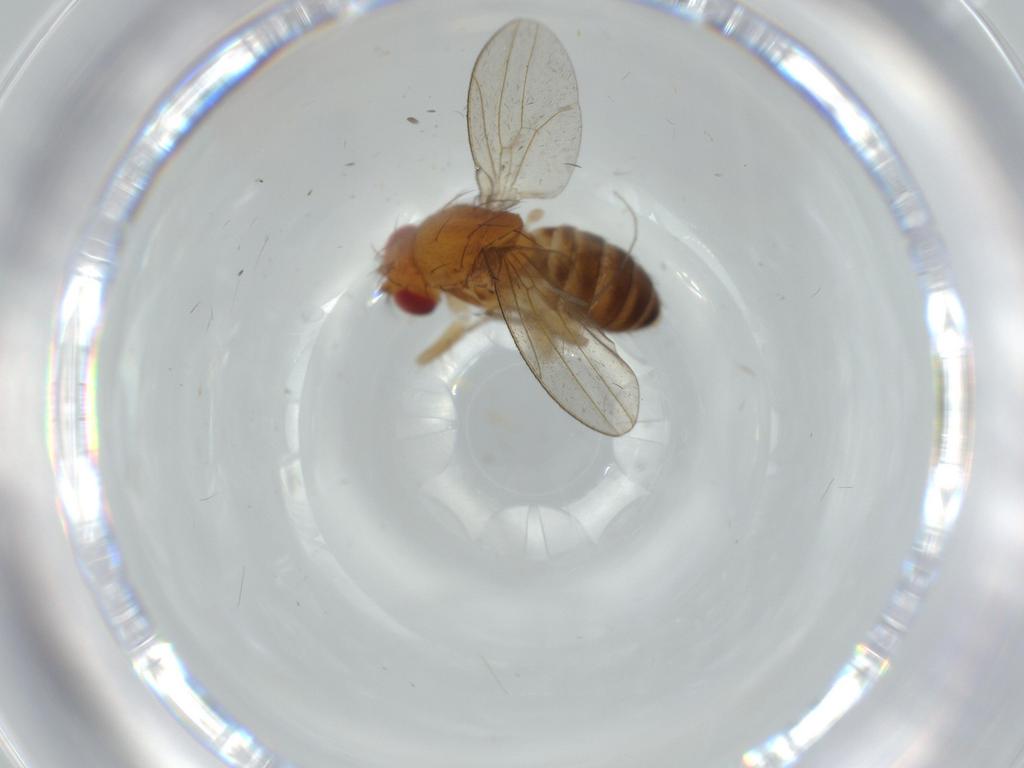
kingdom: Animalia
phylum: Arthropoda
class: Insecta
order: Diptera
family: Drosophilidae
